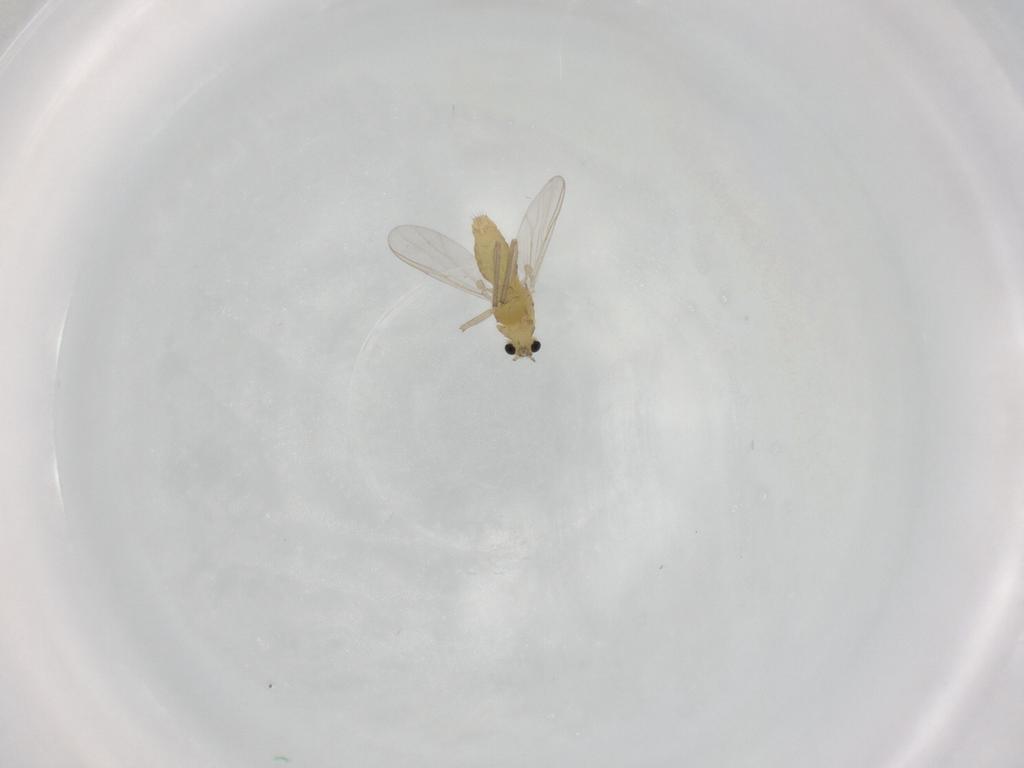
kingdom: Animalia
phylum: Arthropoda
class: Insecta
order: Diptera
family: Chironomidae
